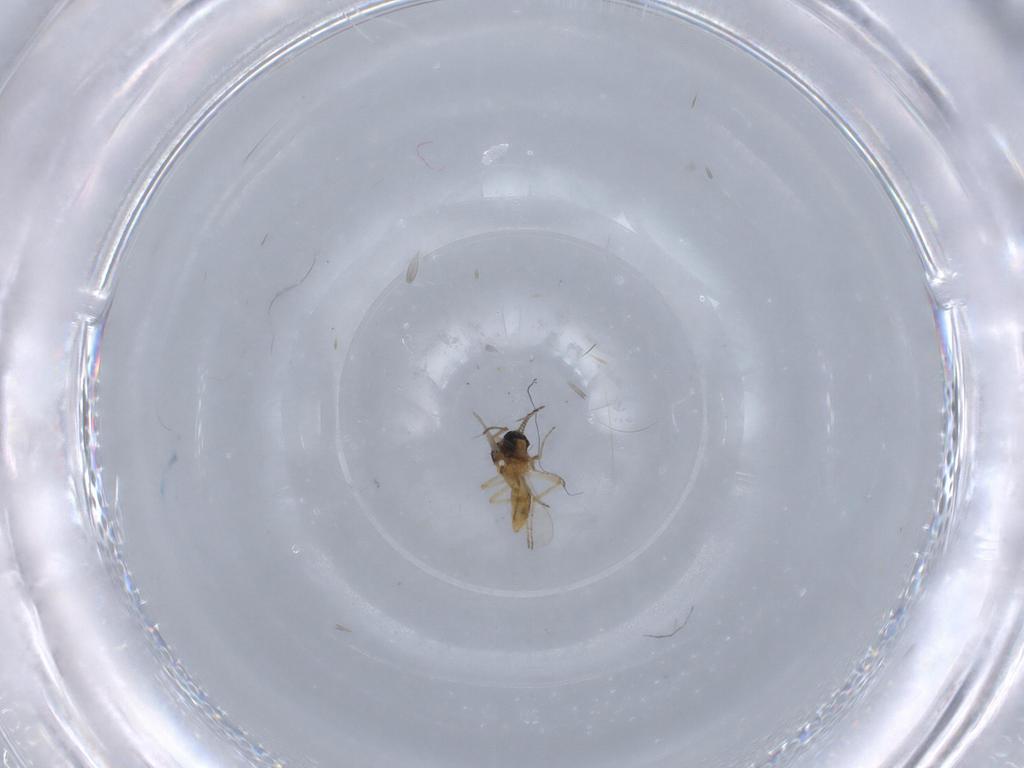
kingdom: Animalia
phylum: Arthropoda
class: Insecta
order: Diptera
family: Ceratopogonidae
